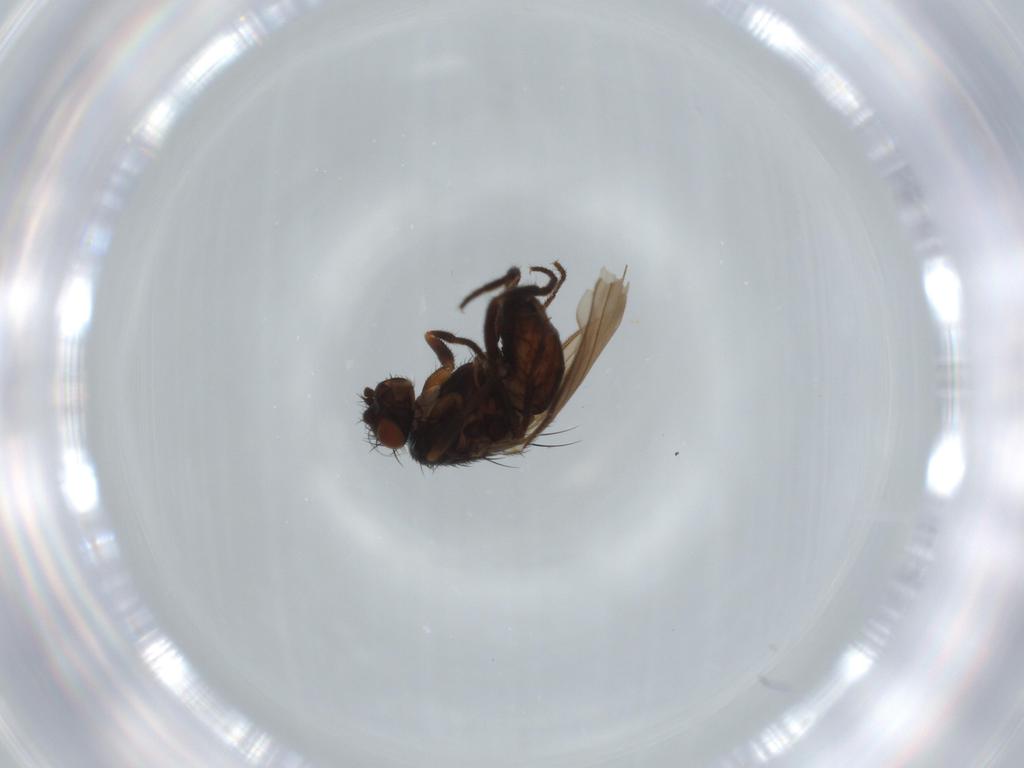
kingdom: Animalia
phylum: Arthropoda
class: Insecta
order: Diptera
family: Sphaeroceridae
